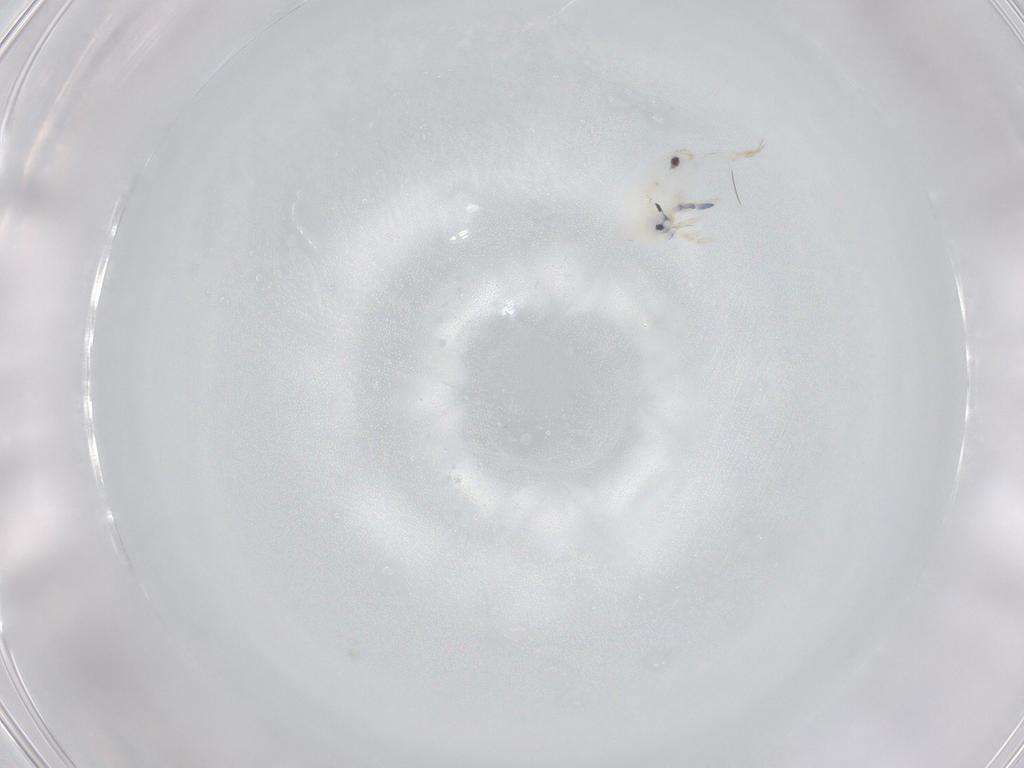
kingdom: Animalia
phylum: Arthropoda
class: Collembola
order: Entomobryomorpha
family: Entomobryidae
